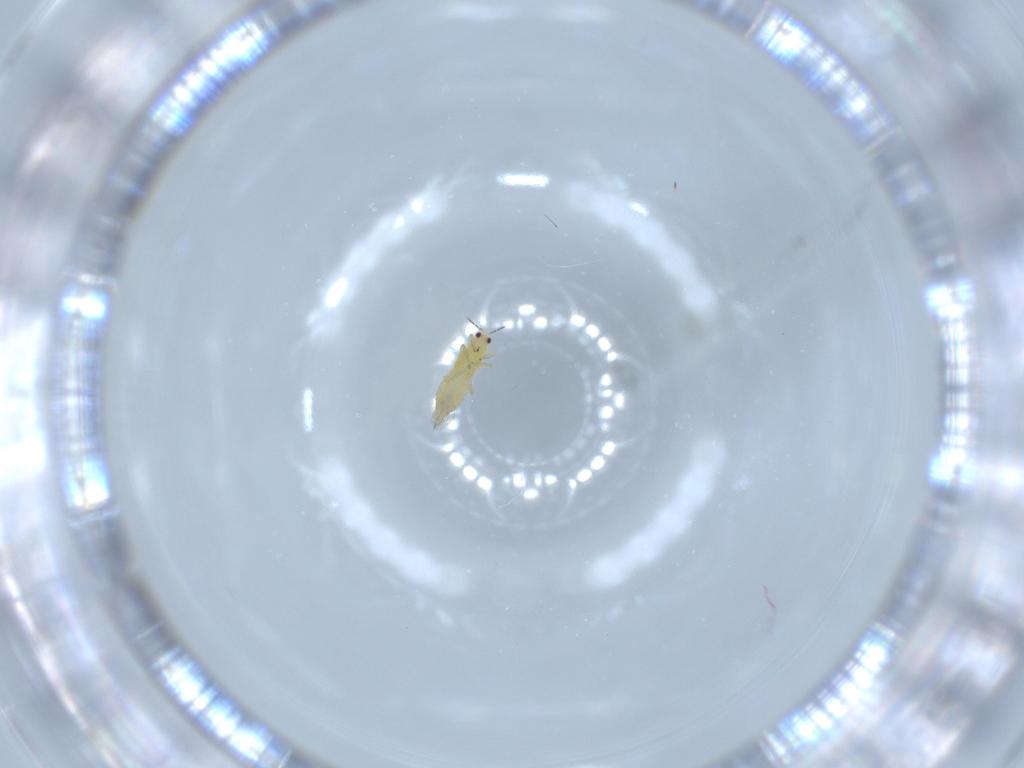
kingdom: Animalia
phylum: Arthropoda
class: Insecta
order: Thysanoptera
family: Thripidae
